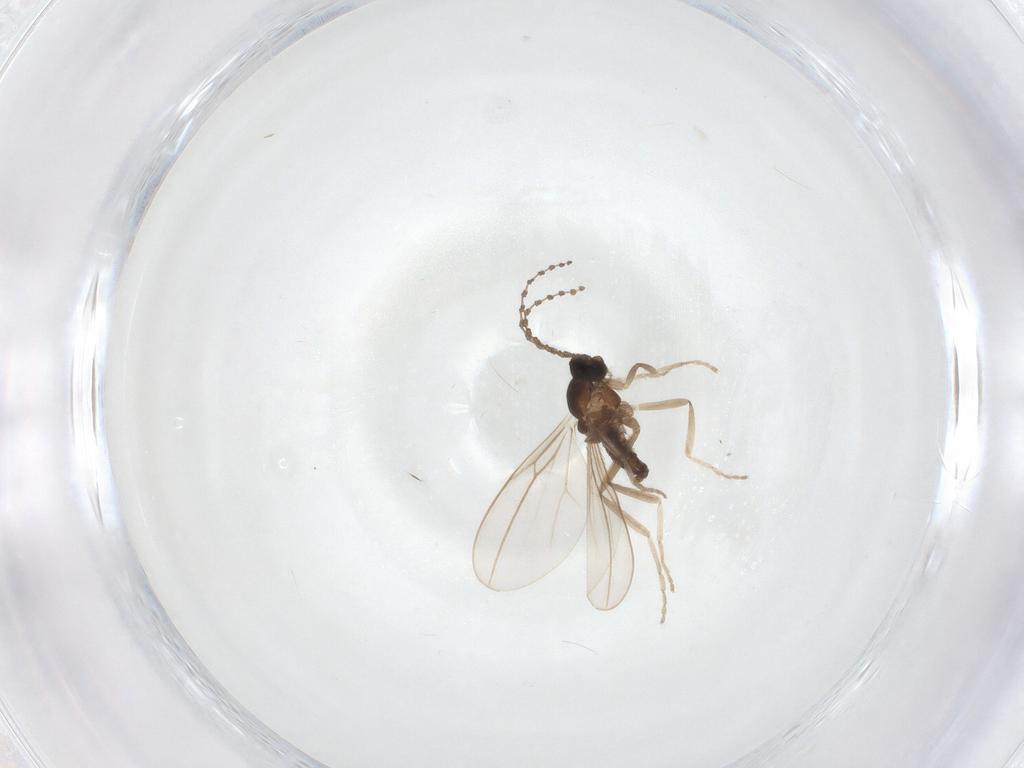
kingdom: Animalia
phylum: Arthropoda
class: Insecta
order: Diptera
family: Cecidomyiidae
